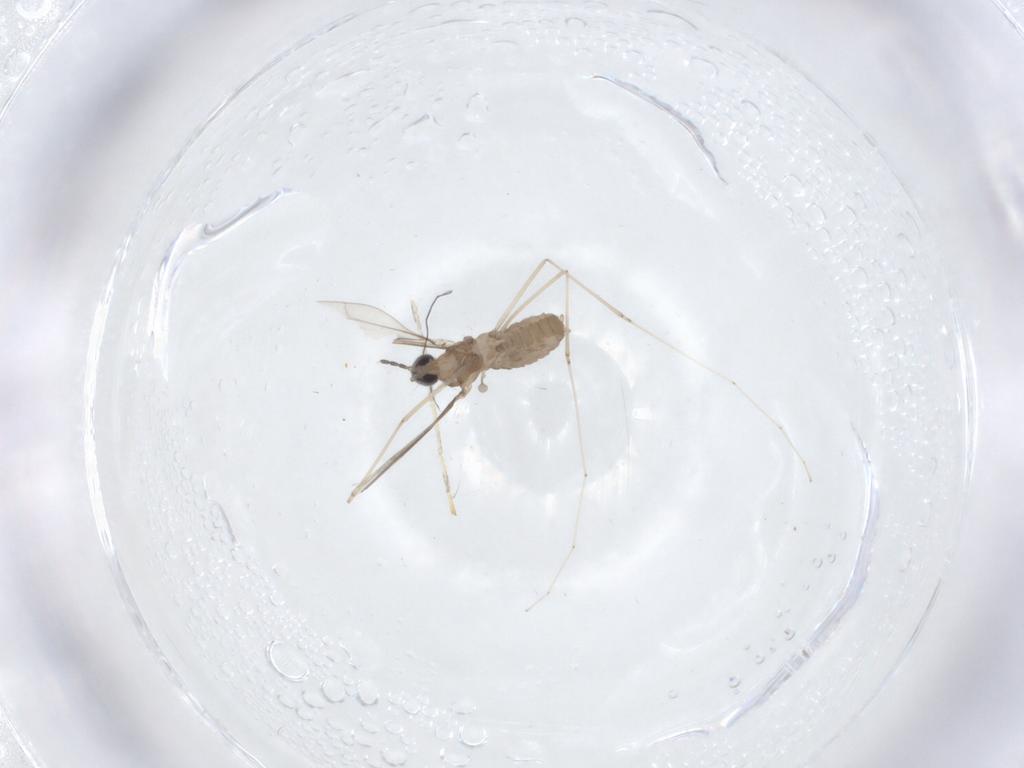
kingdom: Animalia
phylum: Arthropoda
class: Insecta
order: Diptera
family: Cecidomyiidae
